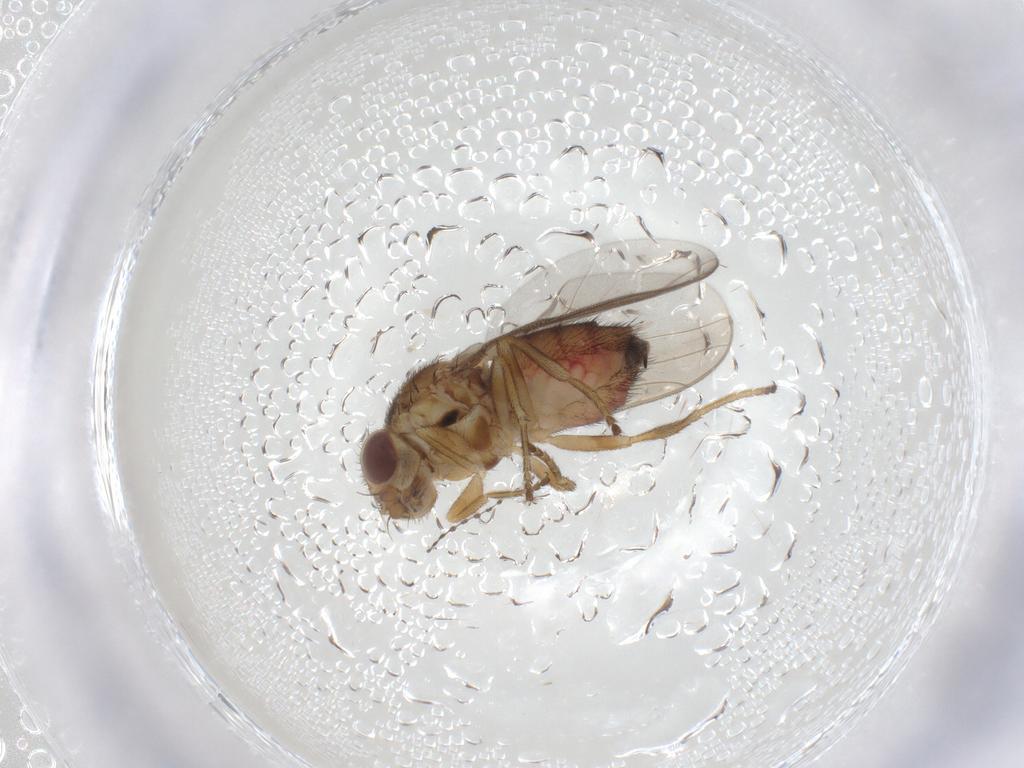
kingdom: Animalia
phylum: Arthropoda
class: Insecta
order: Diptera
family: Chloropidae
